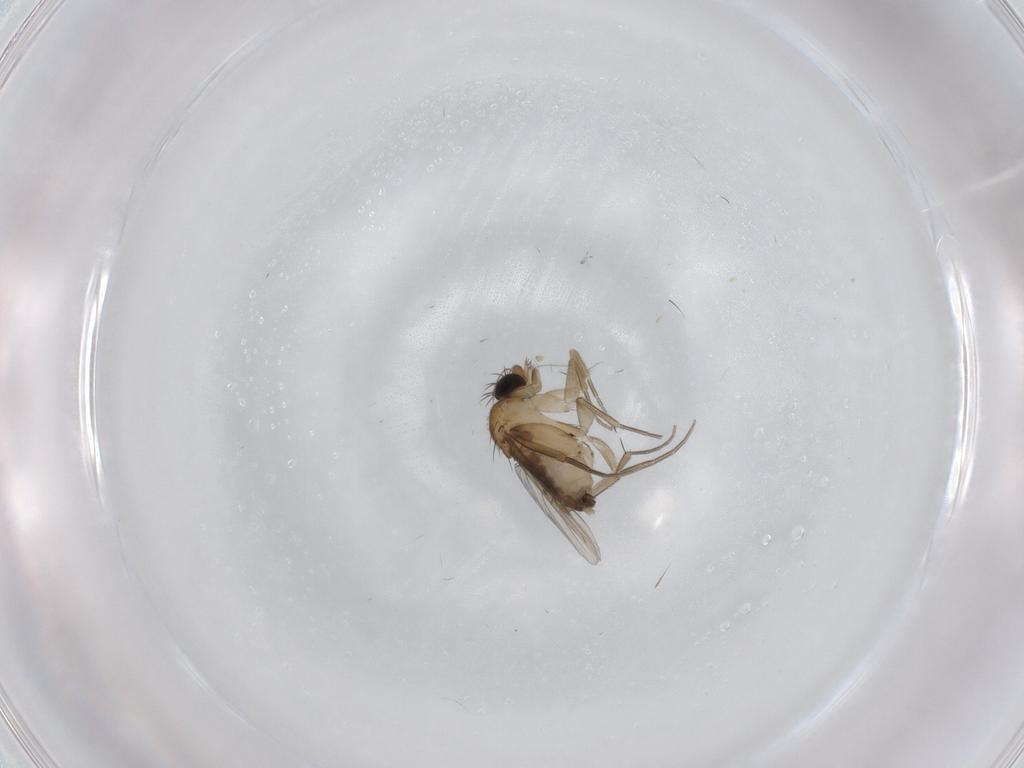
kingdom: Animalia
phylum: Arthropoda
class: Insecta
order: Diptera
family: Phoridae
